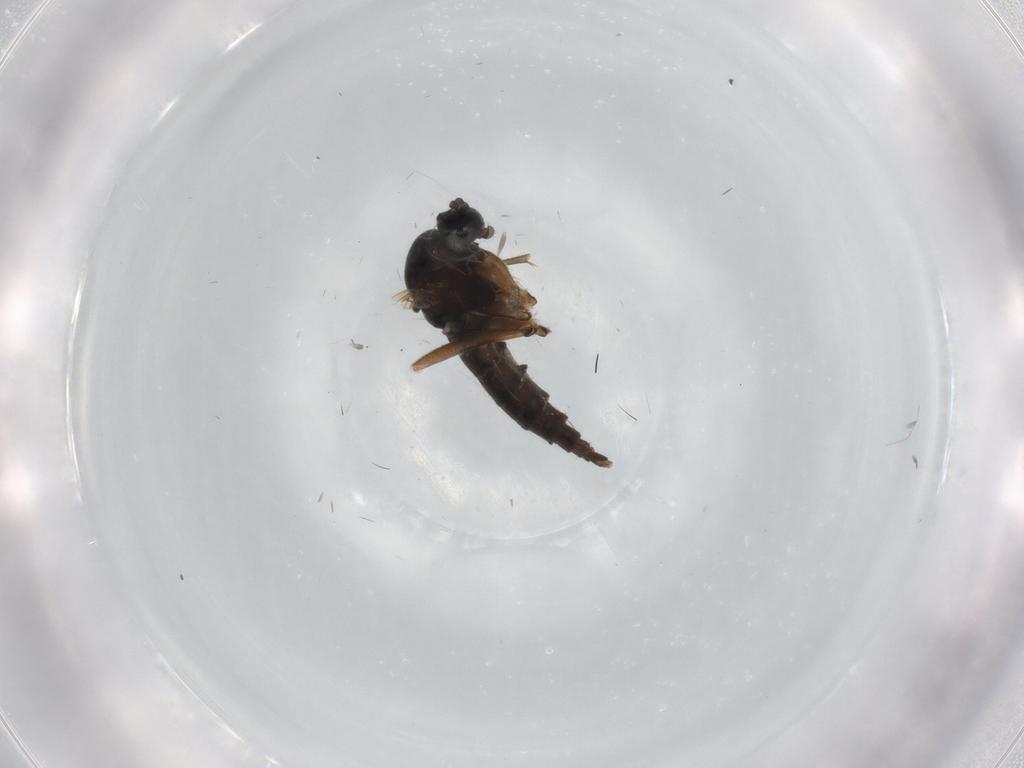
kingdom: Animalia
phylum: Arthropoda
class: Insecta
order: Diptera
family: Sciaridae
